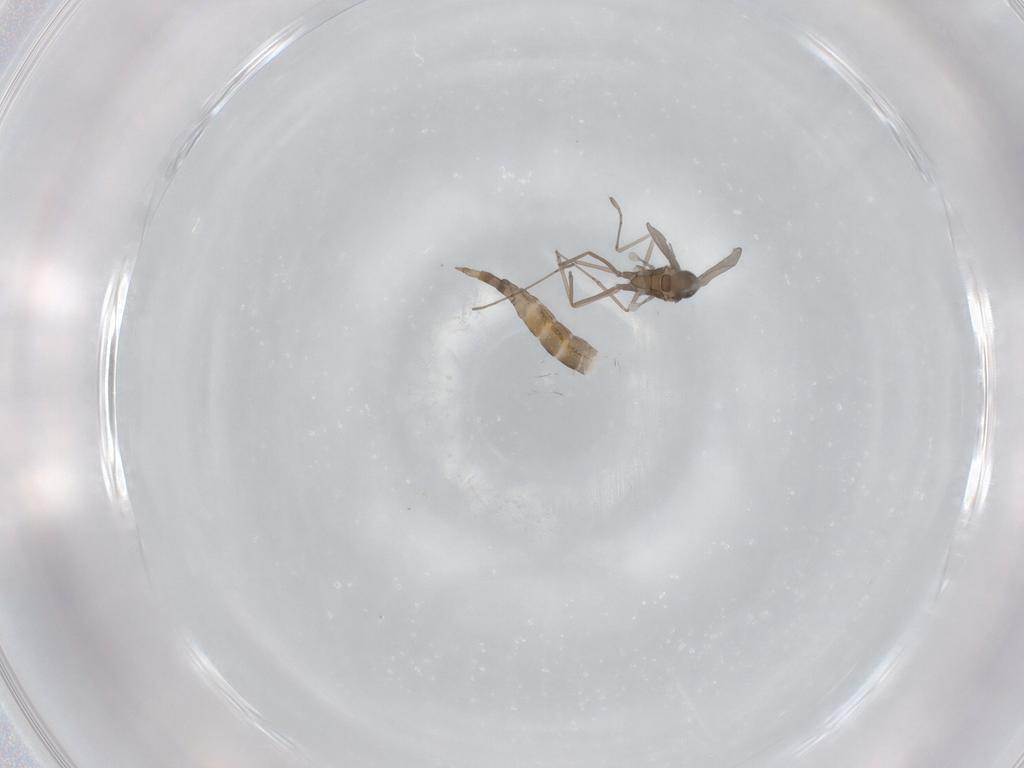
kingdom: Animalia
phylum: Arthropoda
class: Insecta
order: Diptera
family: Cecidomyiidae
